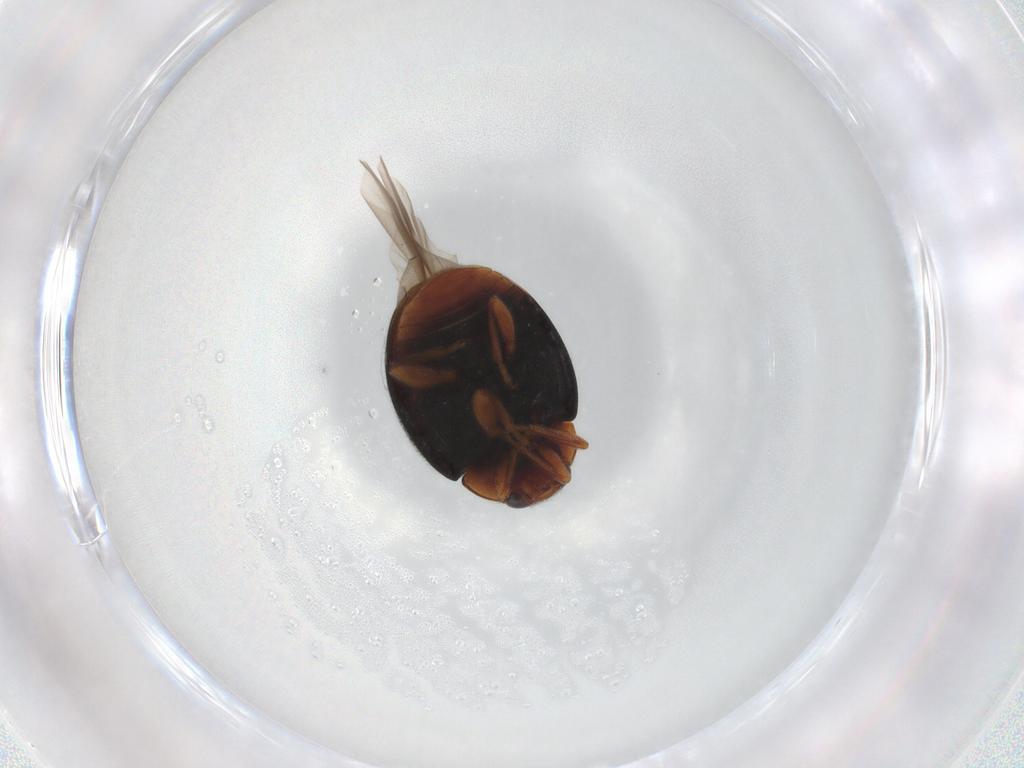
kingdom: Animalia
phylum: Arthropoda
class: Insecta
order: Coleoptera
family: Coccinellidae
